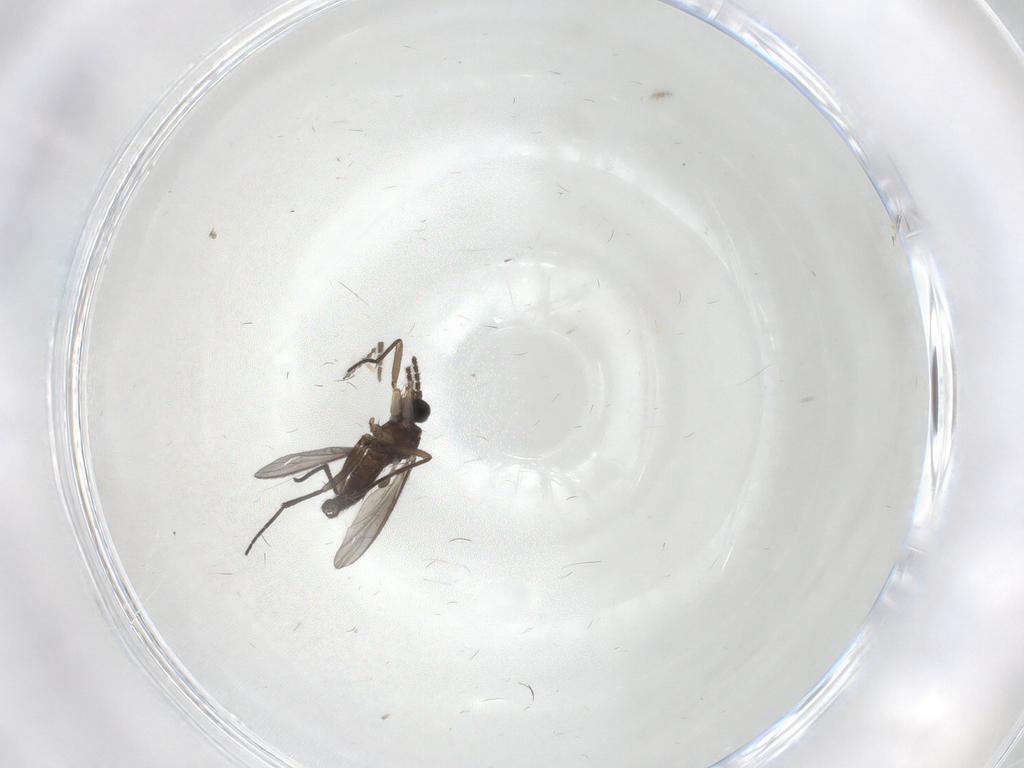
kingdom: Animalia
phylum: Arthropoda
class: Insecta
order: Diptera
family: Sciaridae
